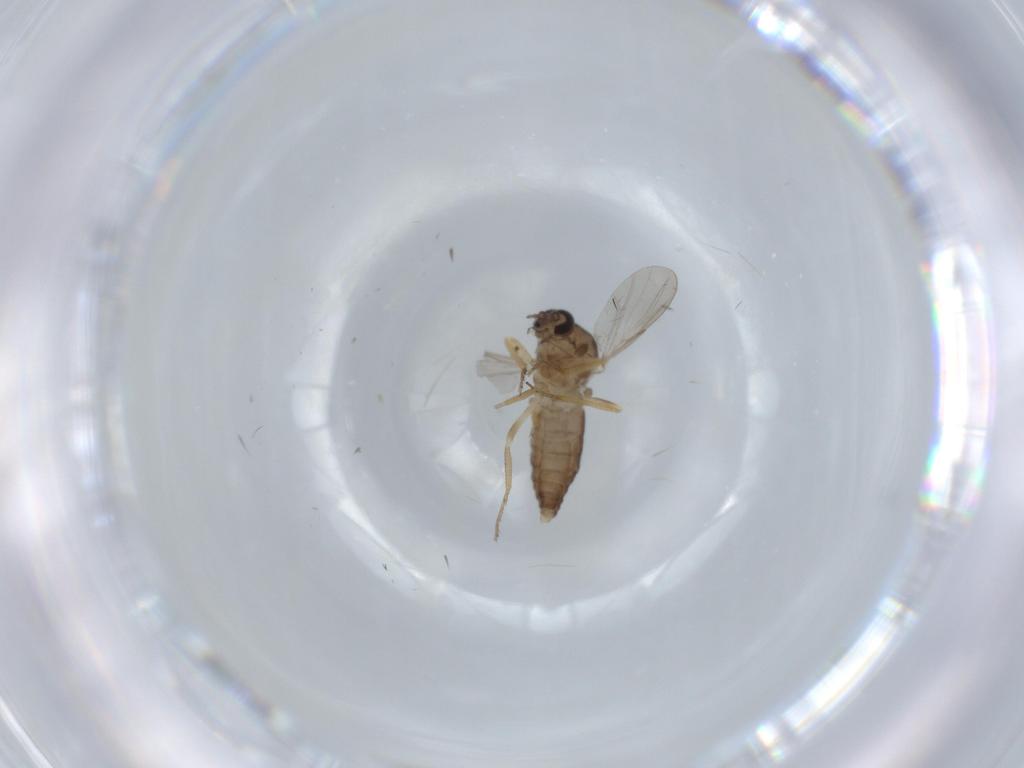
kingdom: Animalia
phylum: Arthropoda
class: Insecta
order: Diptera
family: Ceratopogonidae
